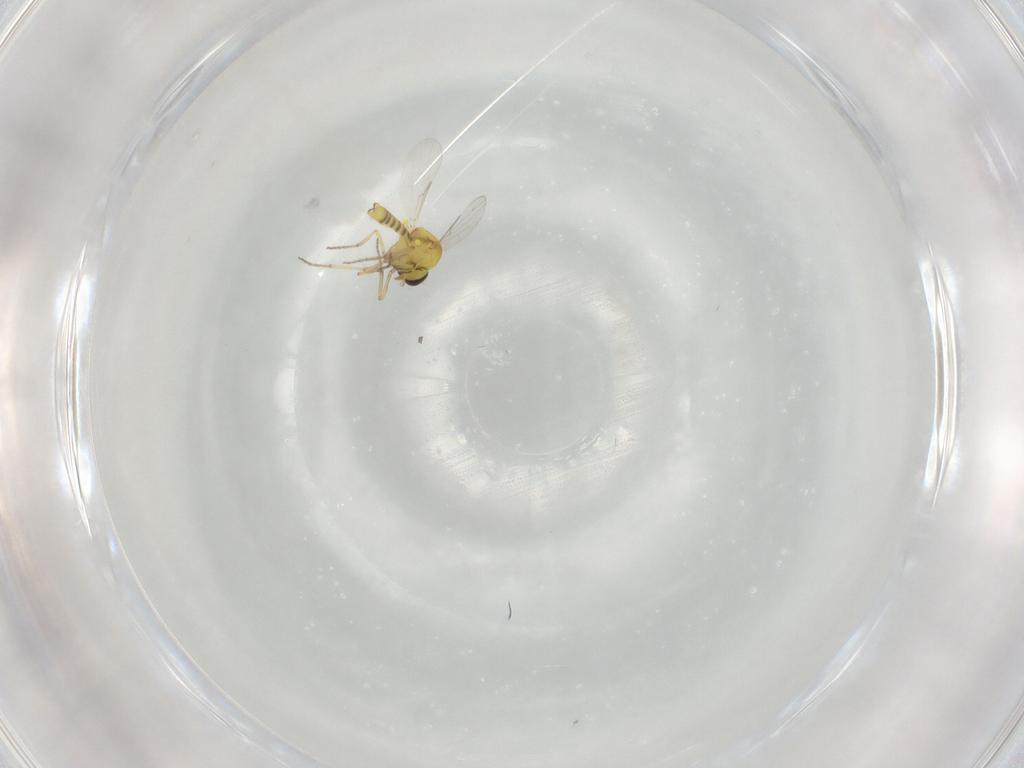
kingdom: Animalia
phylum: Arthropoda
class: Insecta
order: Diptera
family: Ceratopogonidae
